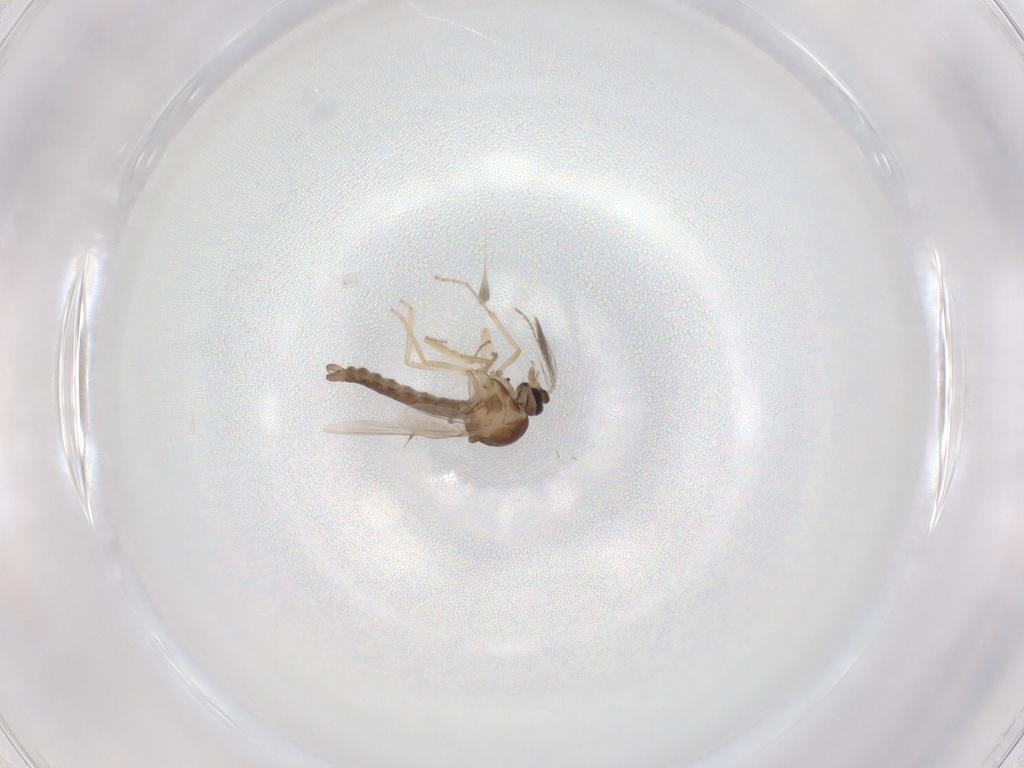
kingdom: Animalia
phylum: Arthropoda
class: Insecta
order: Diptera
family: Ceratopogonidae
